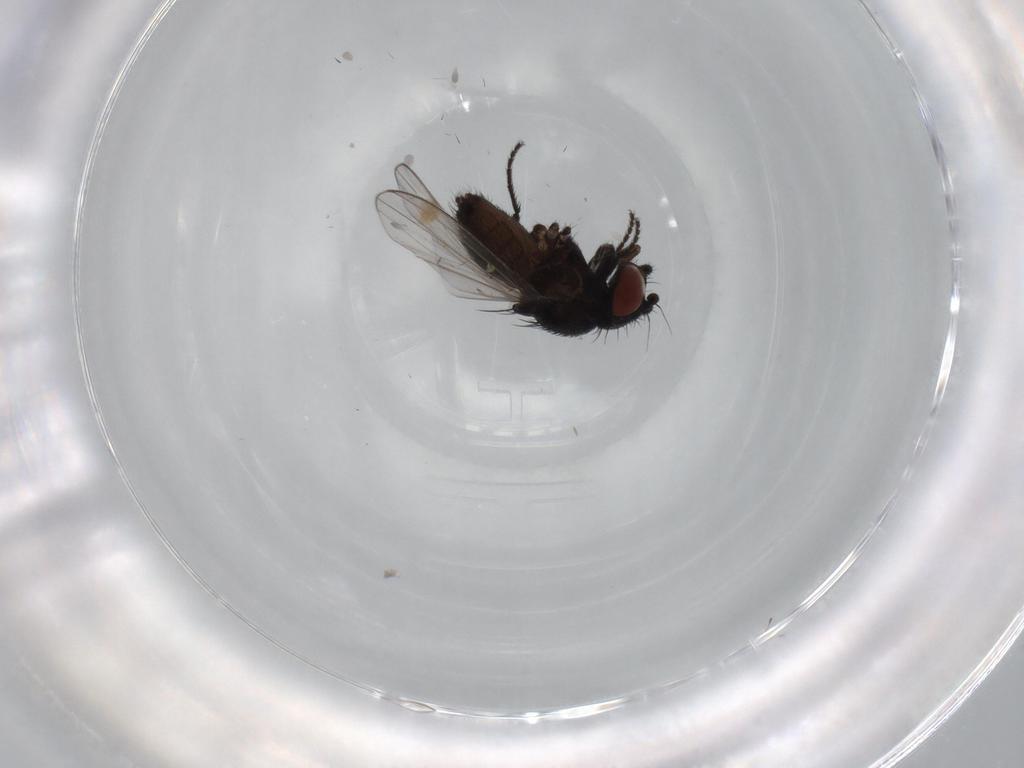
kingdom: Animalia
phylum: Arthropoda
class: Insecta
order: Diptera
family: Milichiidae
